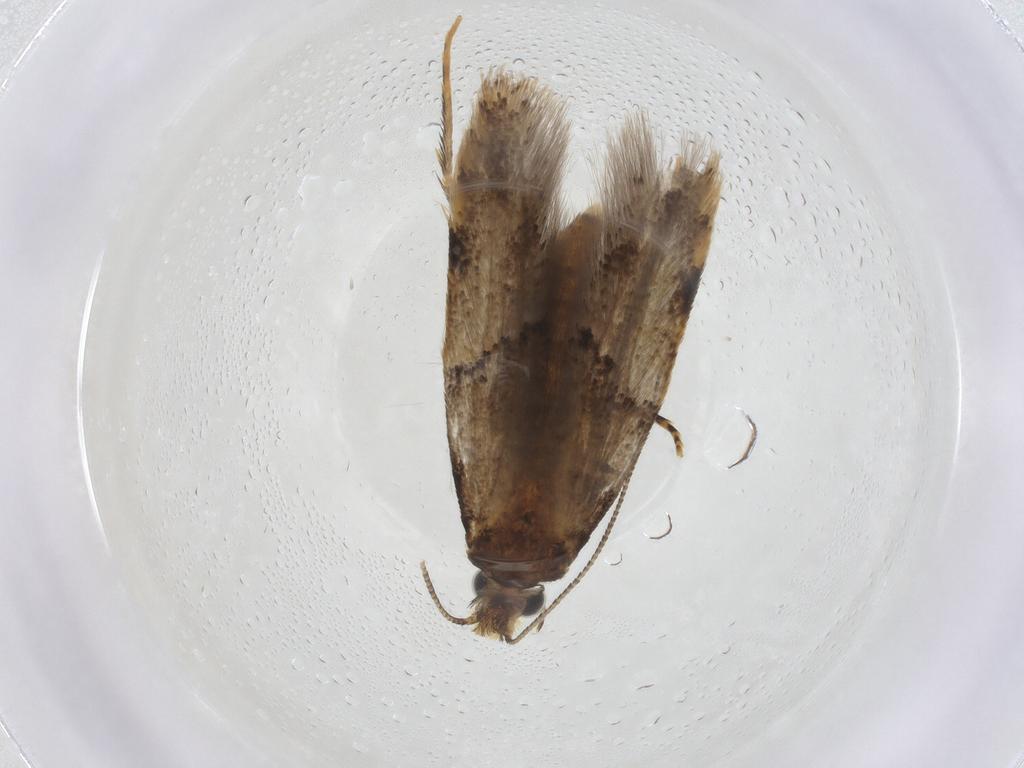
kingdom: Animalia
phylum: Arthropoda
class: Insecta
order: Lepidoptera
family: Tineidae
